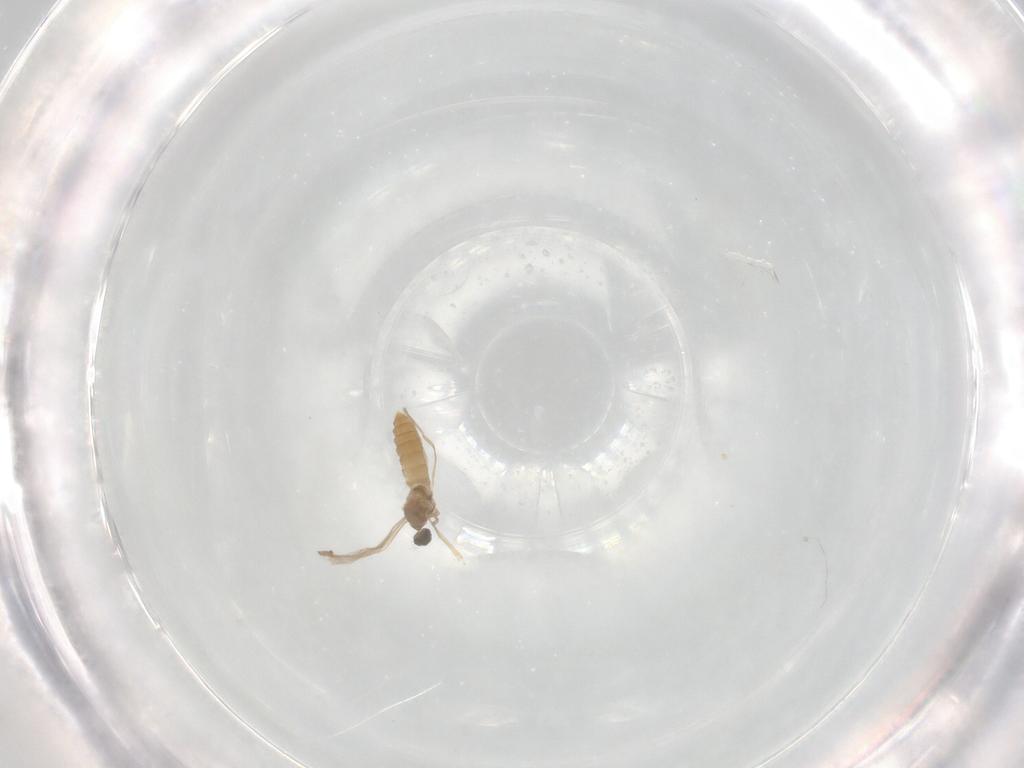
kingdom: Animalia
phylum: Arthropoda
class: Insecta
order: Diptera
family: Cecidomyiidae
